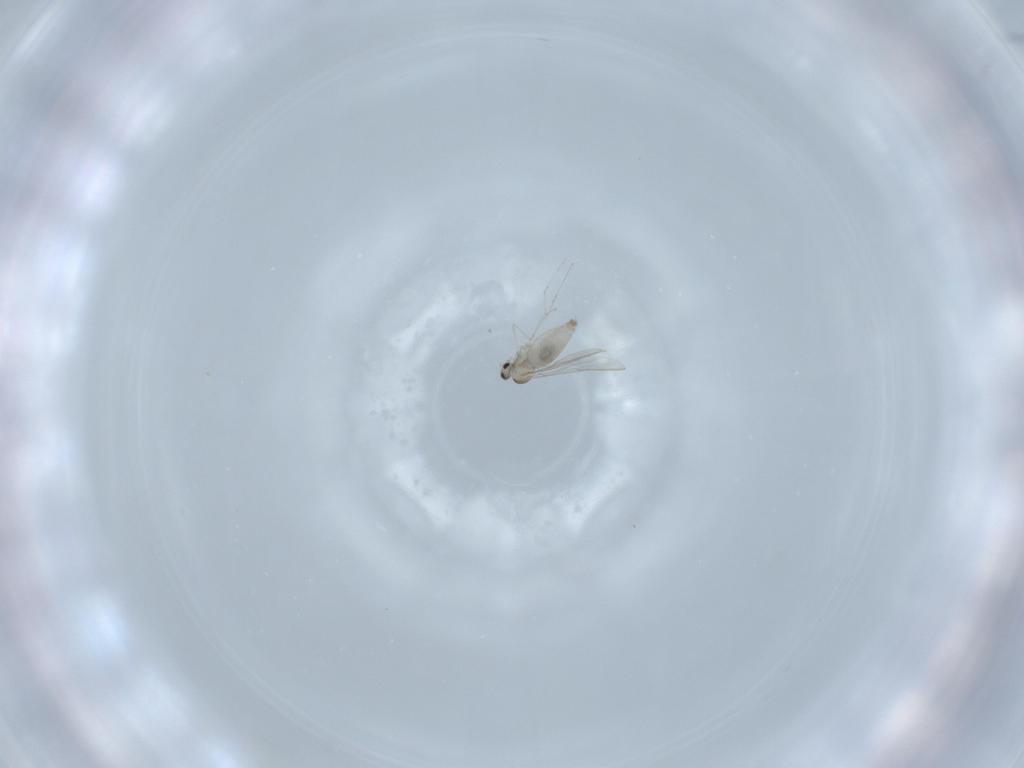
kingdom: Animalia
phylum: Arthropoda
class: Insecta
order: Diptera
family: Cecidomyiidae
